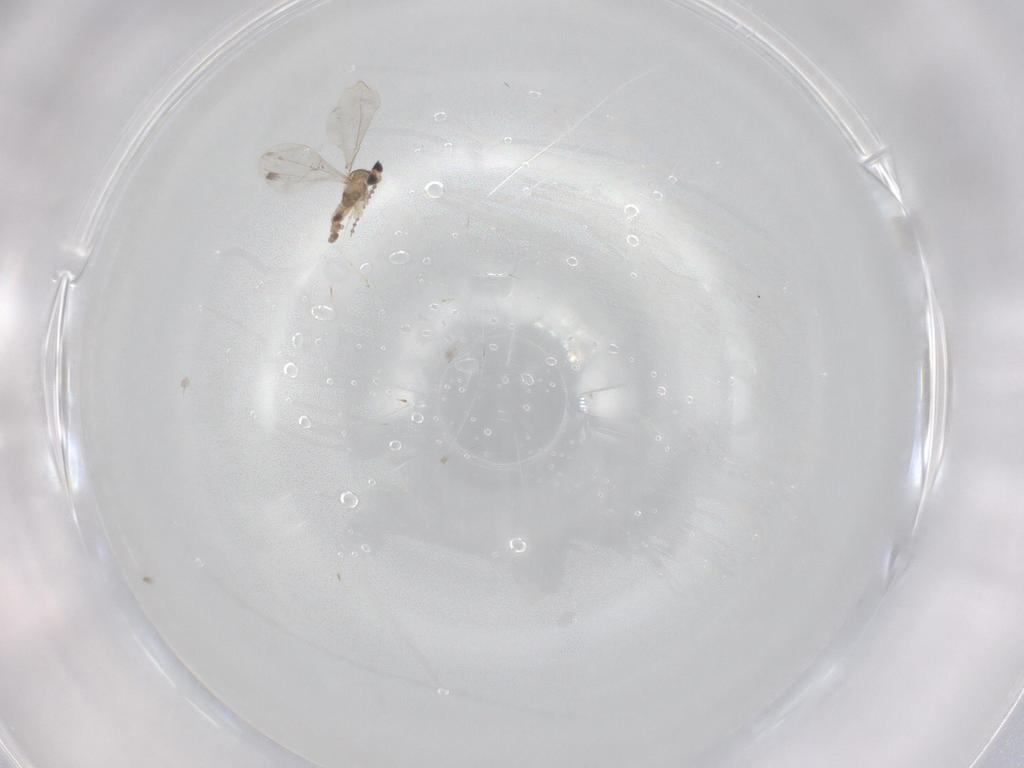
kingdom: Animalia
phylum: Arthropoda
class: Insecta
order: Diptera
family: Cecidomyiidae
